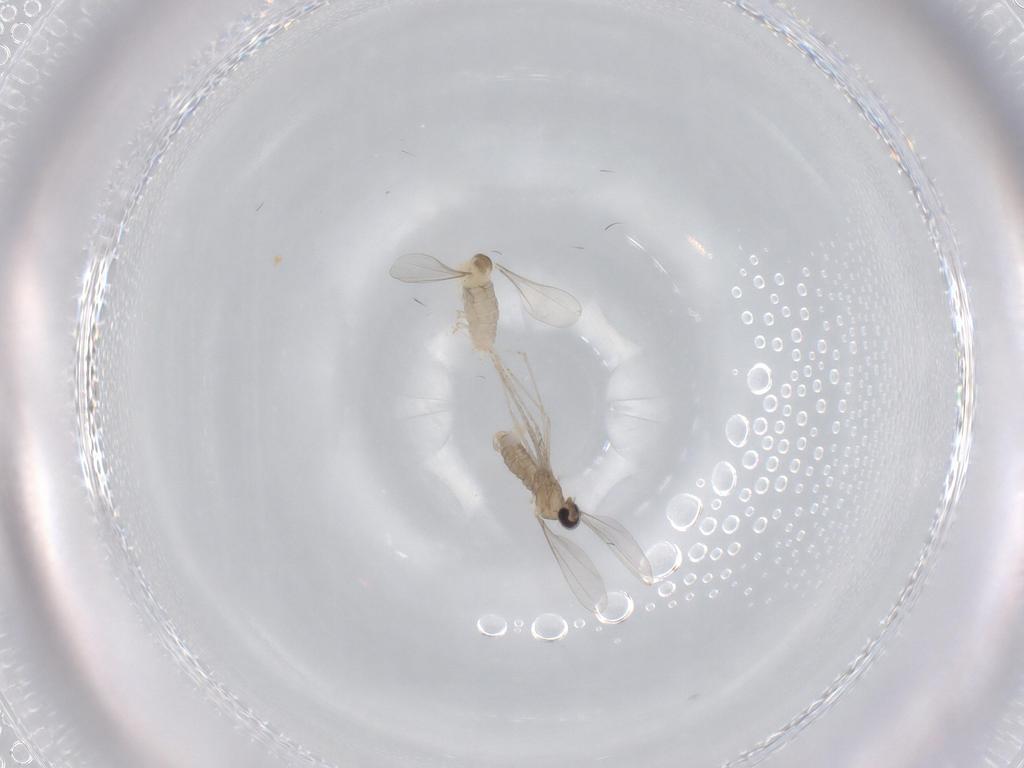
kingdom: Animalia
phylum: Arthropoda
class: Insecta
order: Diptera
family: Cecidomyiidae
